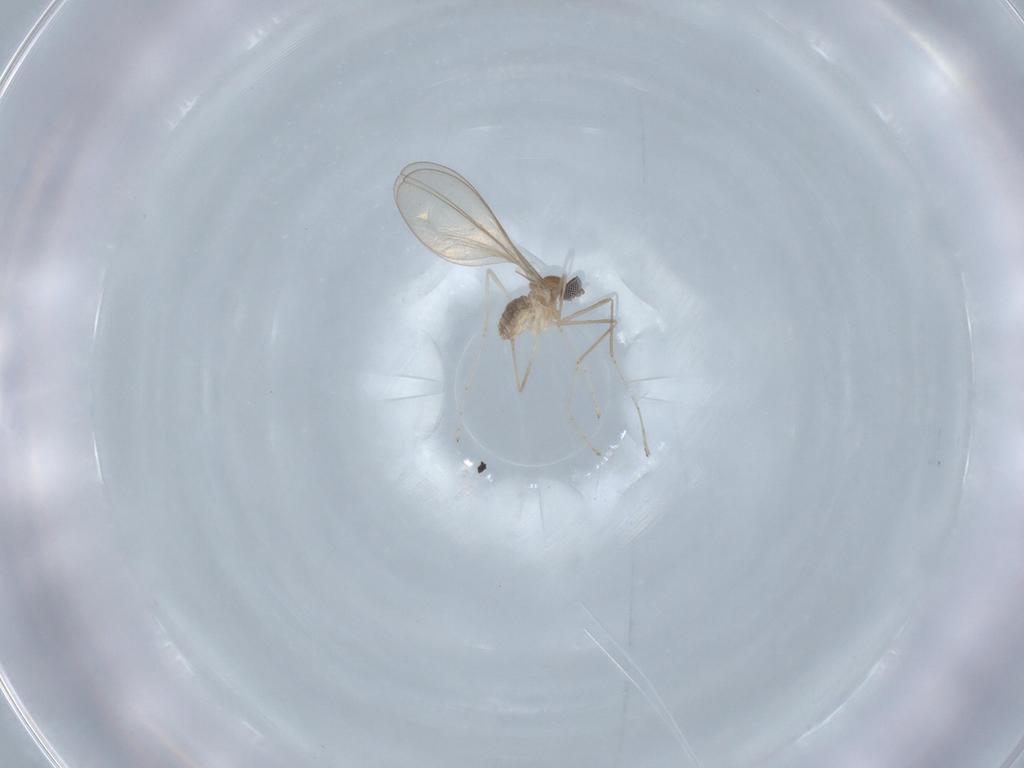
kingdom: Animalia
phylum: Arthropoda
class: Insecta
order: Diptera
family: Cecidomyiidae
